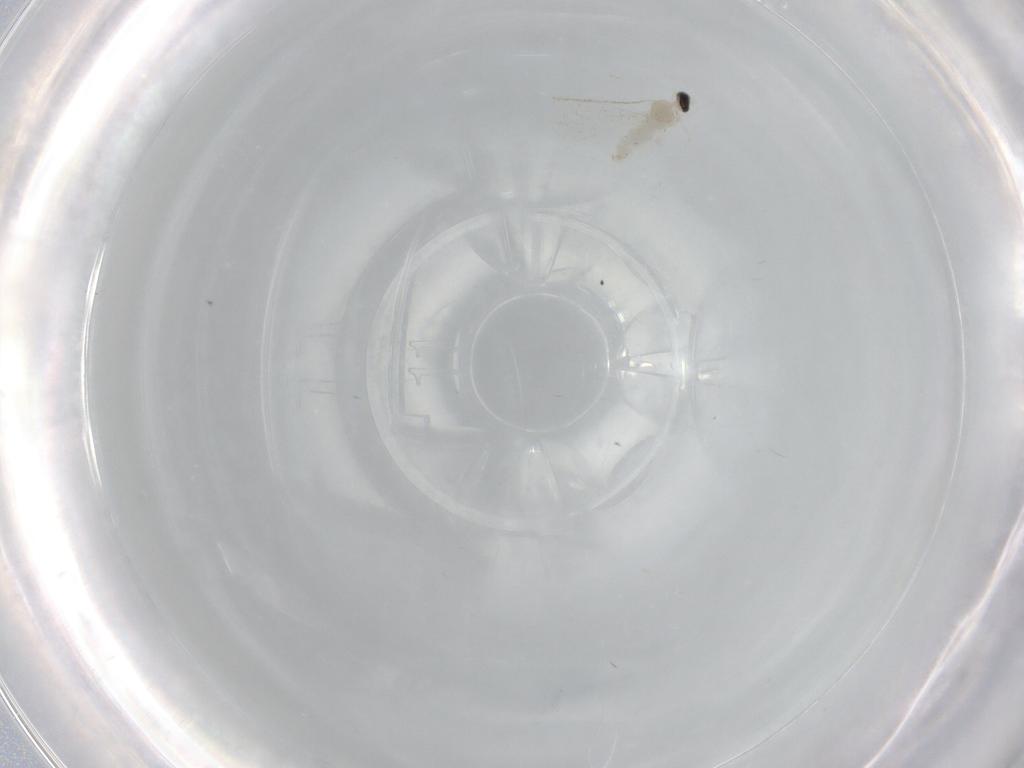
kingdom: Animalia
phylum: Arthropoda
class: Insecta
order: Diptera
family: Cecidomyiidae
